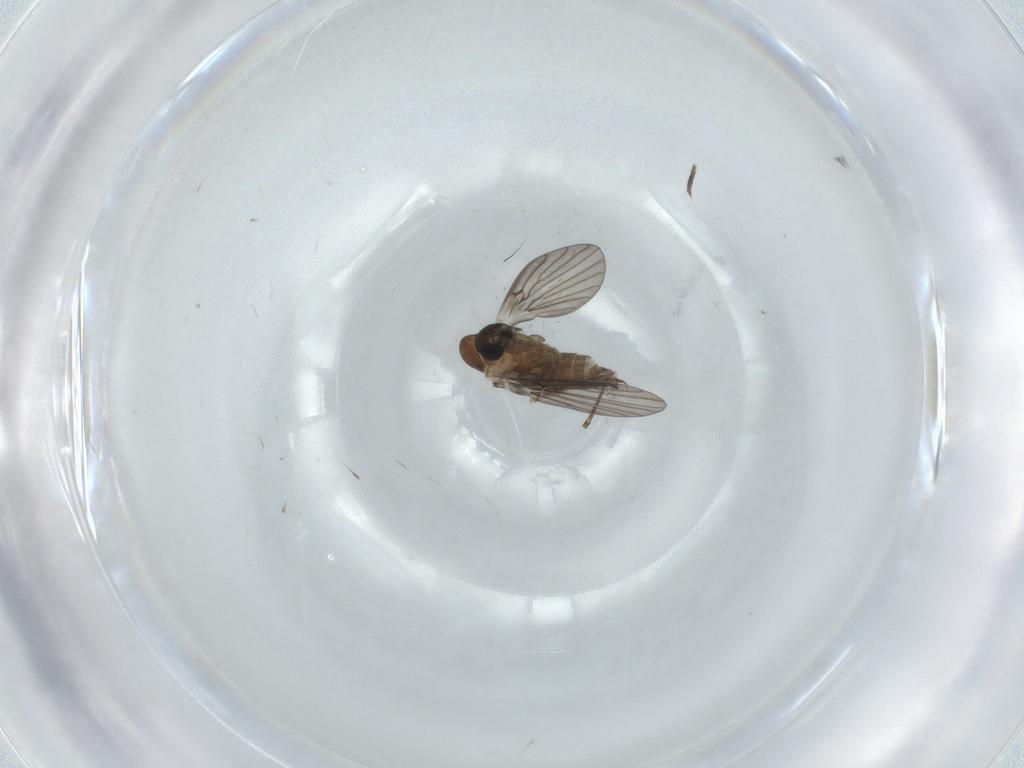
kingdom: Animalia
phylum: Arthropoda
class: Insecta
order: Diptera
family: Psychodidae
